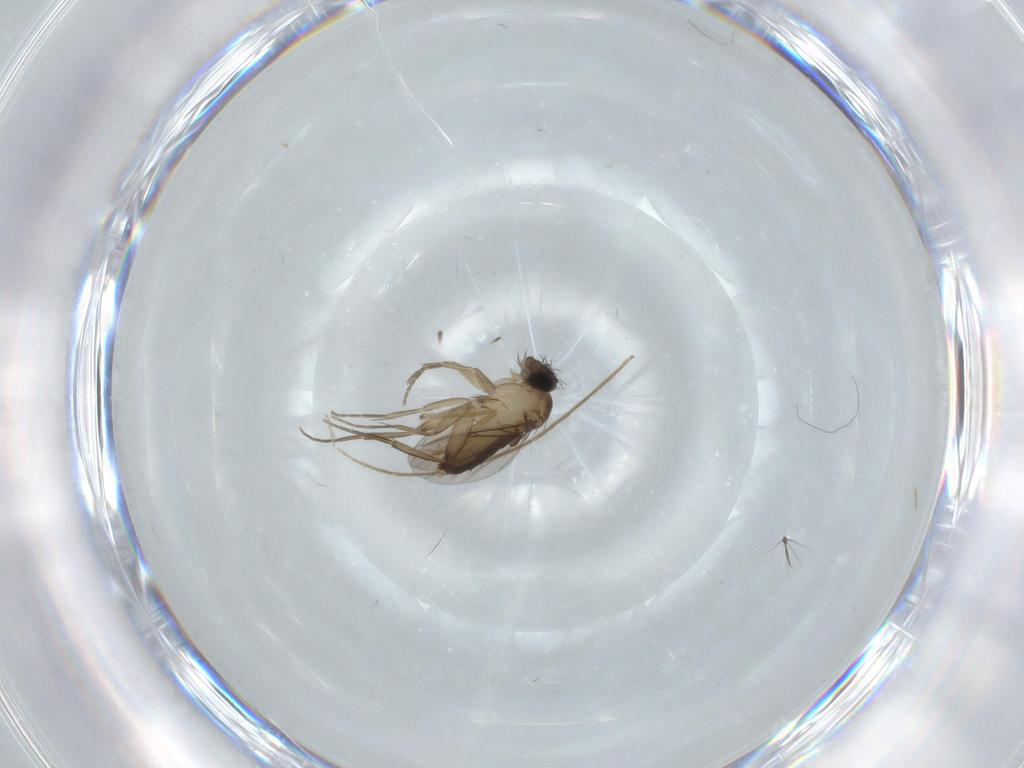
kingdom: Animalia
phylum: Arthropoda
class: Insecta
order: Diptera
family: Phoridae
